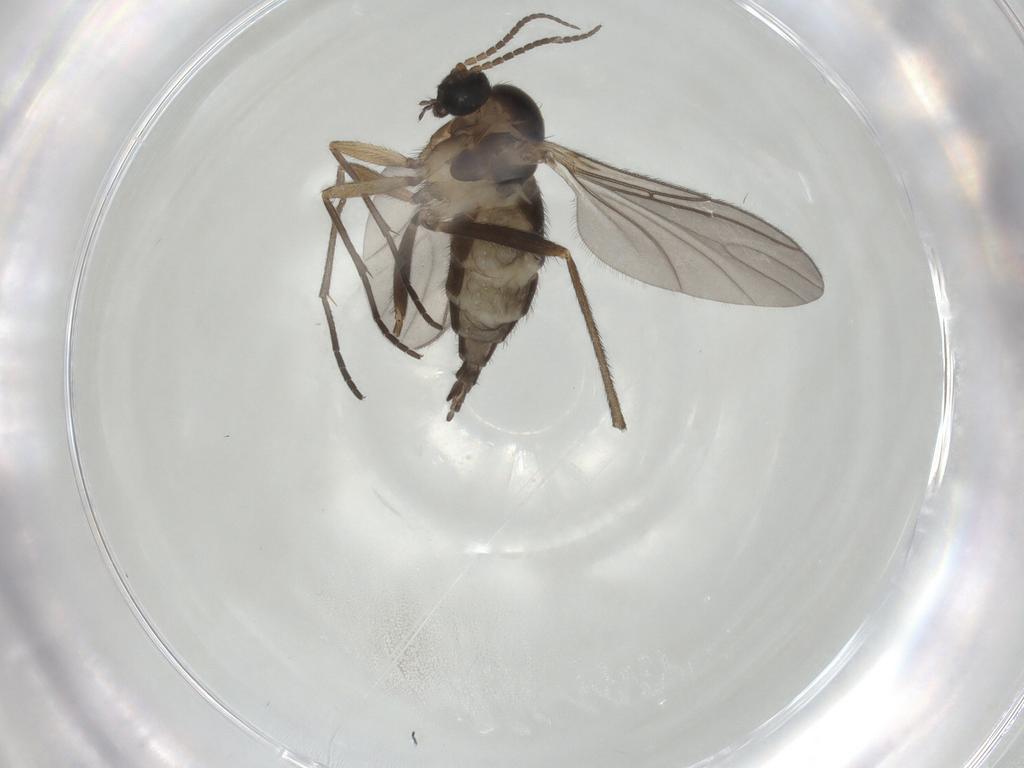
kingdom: Animalia
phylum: Arthropoda
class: Insecta
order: Diptera
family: Sciaridae
